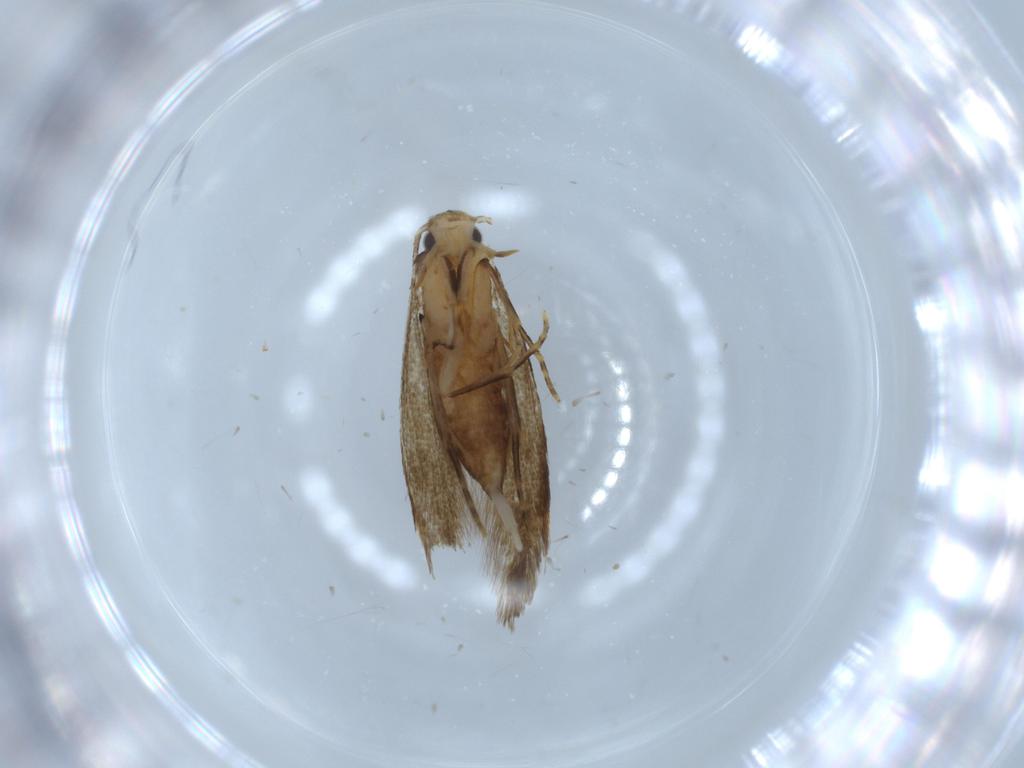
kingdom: Animalia
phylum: Arthropoda
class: Insecta
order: Lepidoptera
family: Tineidae
